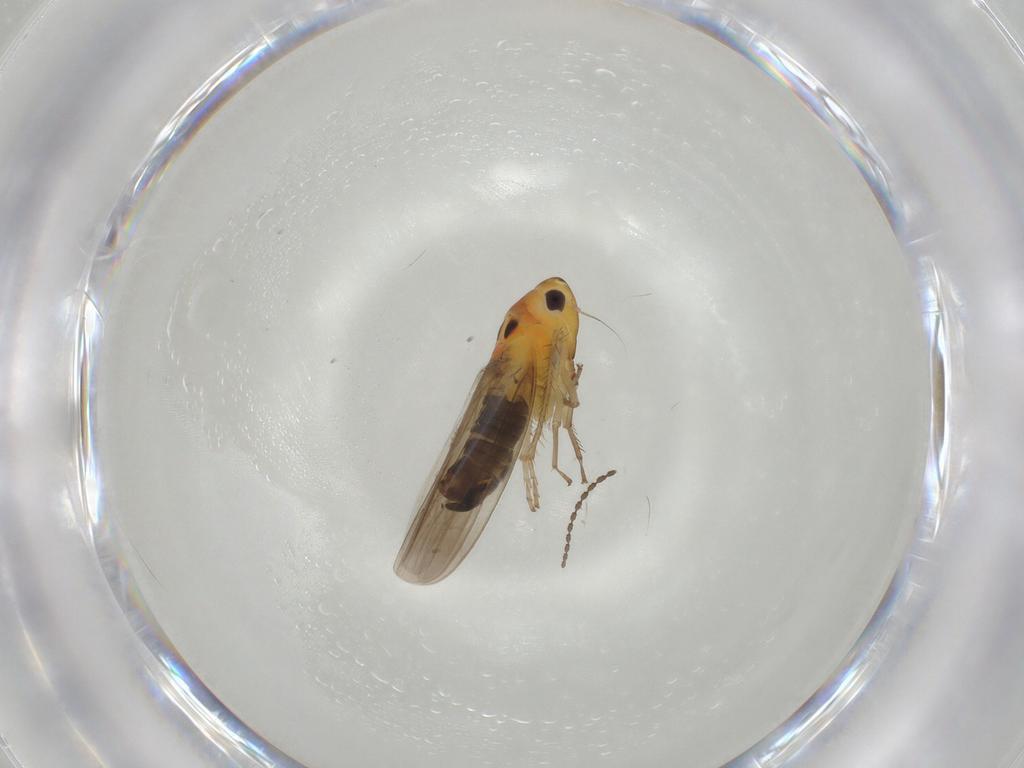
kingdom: Animalia
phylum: Arthropoda
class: Insecta
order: Hemiptera
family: Cicadellidae
